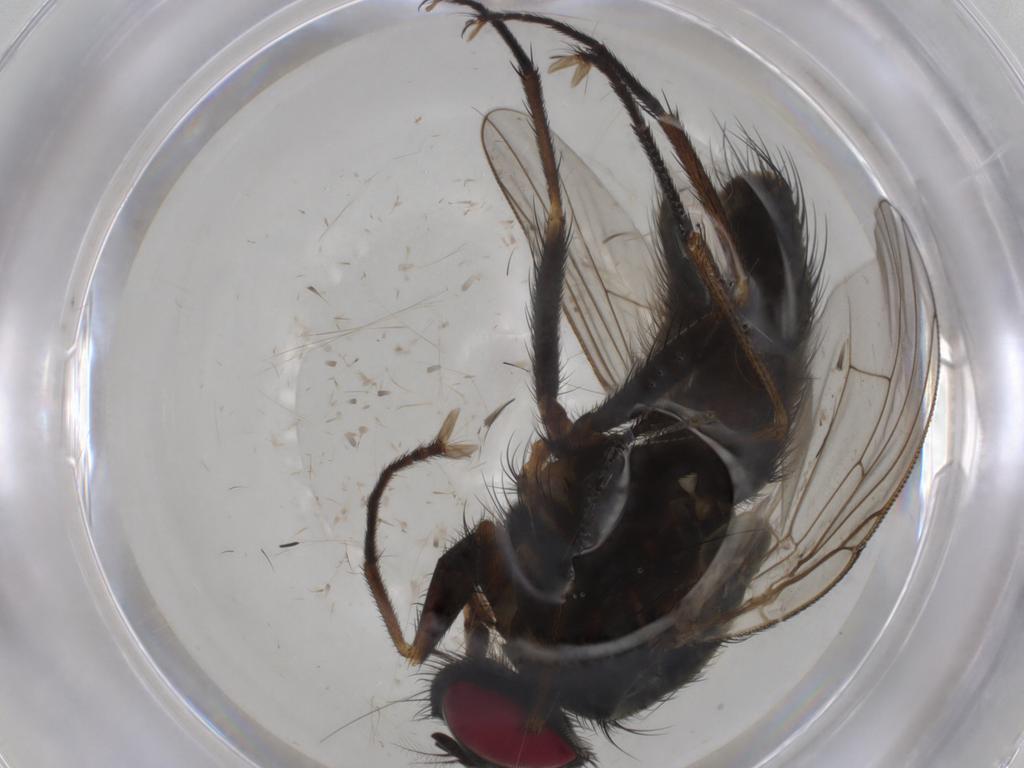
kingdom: Animalia
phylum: Arthropoda
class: Insecta
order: Diptera
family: Muscidae
